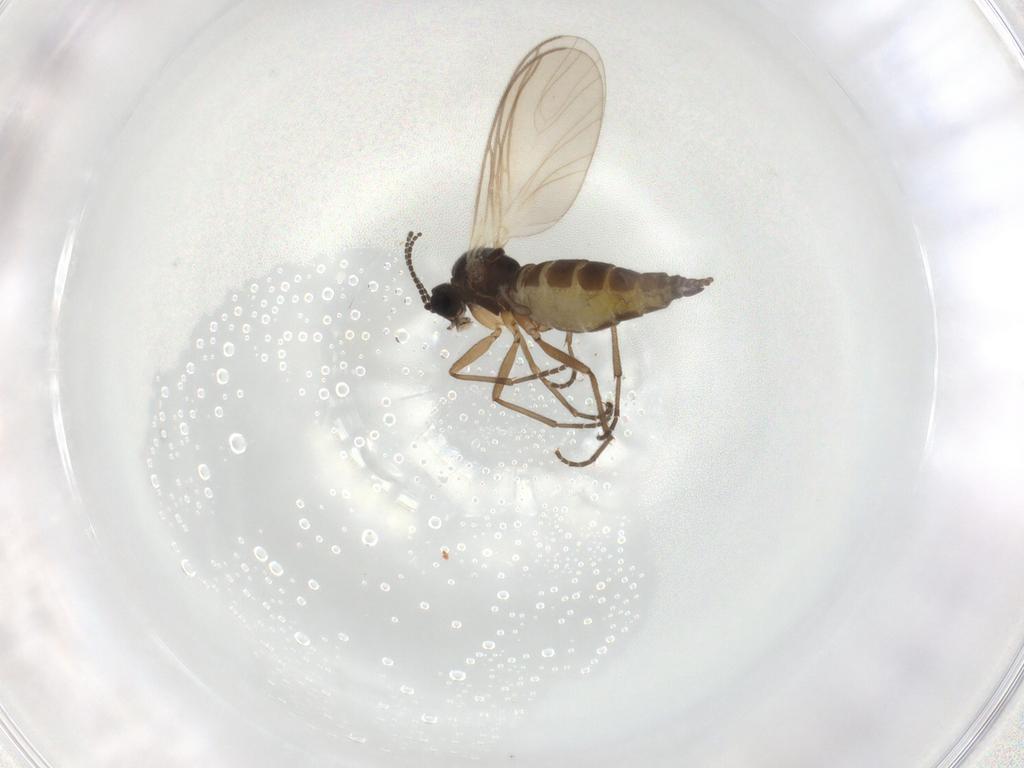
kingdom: Animalia
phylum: Arthropoda
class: Insecta
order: Diptera
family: Chironomidae
